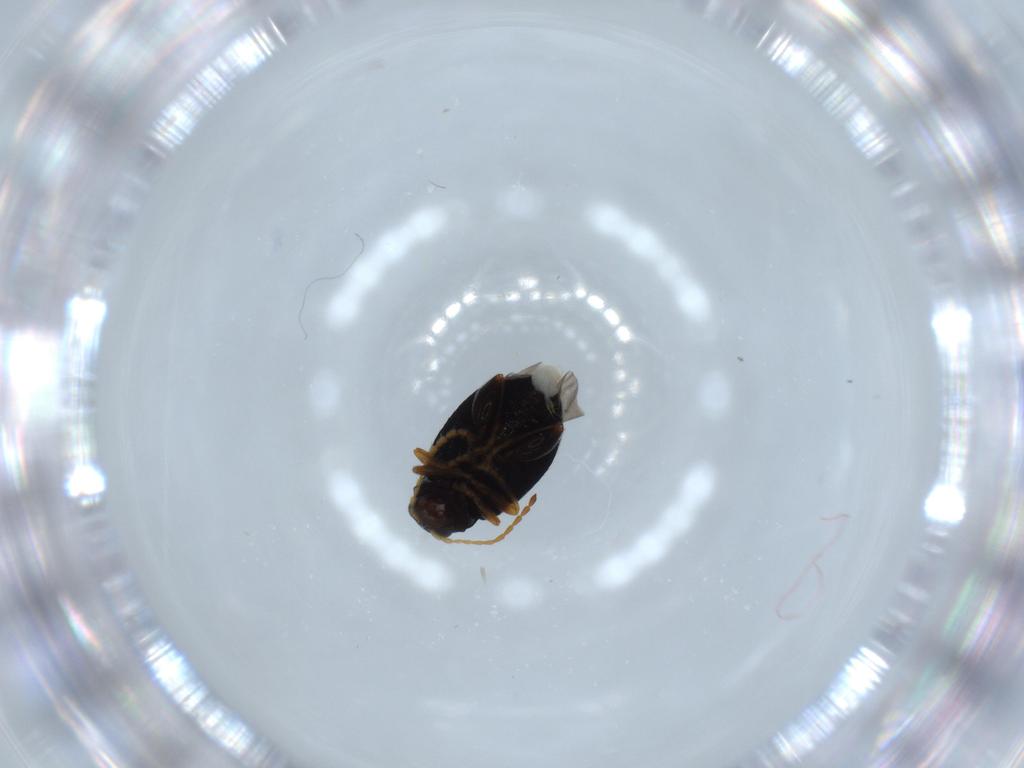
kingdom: Animalia
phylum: Arthropoda
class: Insecta
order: Coleoptera
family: Chrysomelidae
